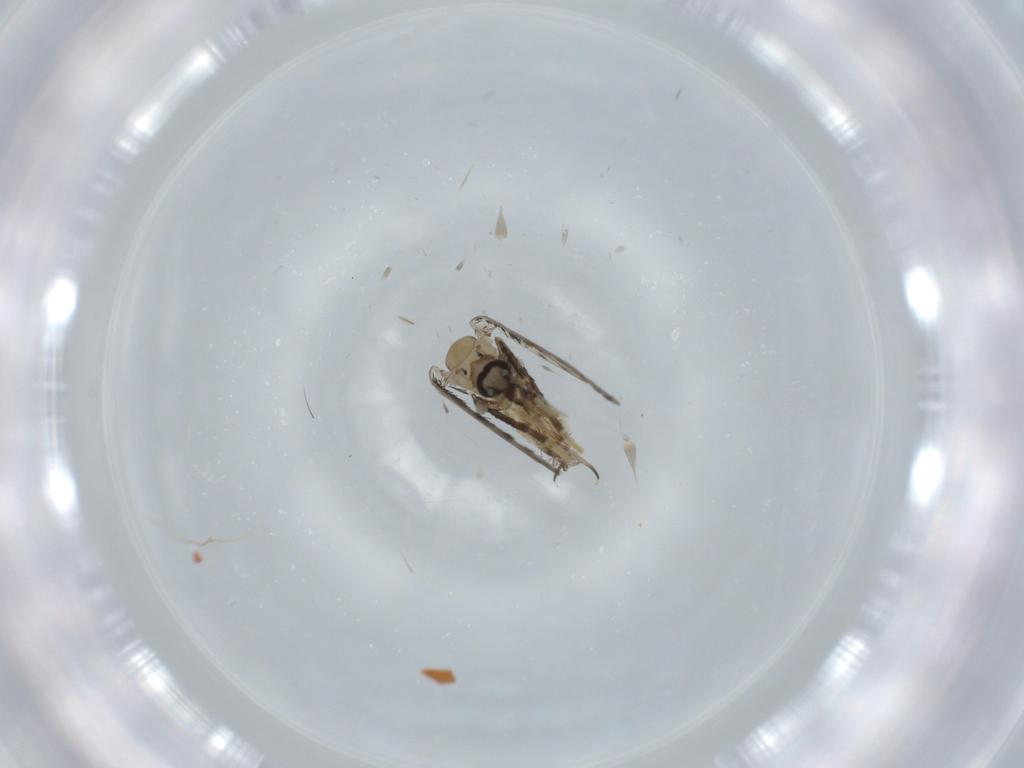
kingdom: Animalia
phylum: Arthropoda
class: Insecta
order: Diptera
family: Psychodidae
